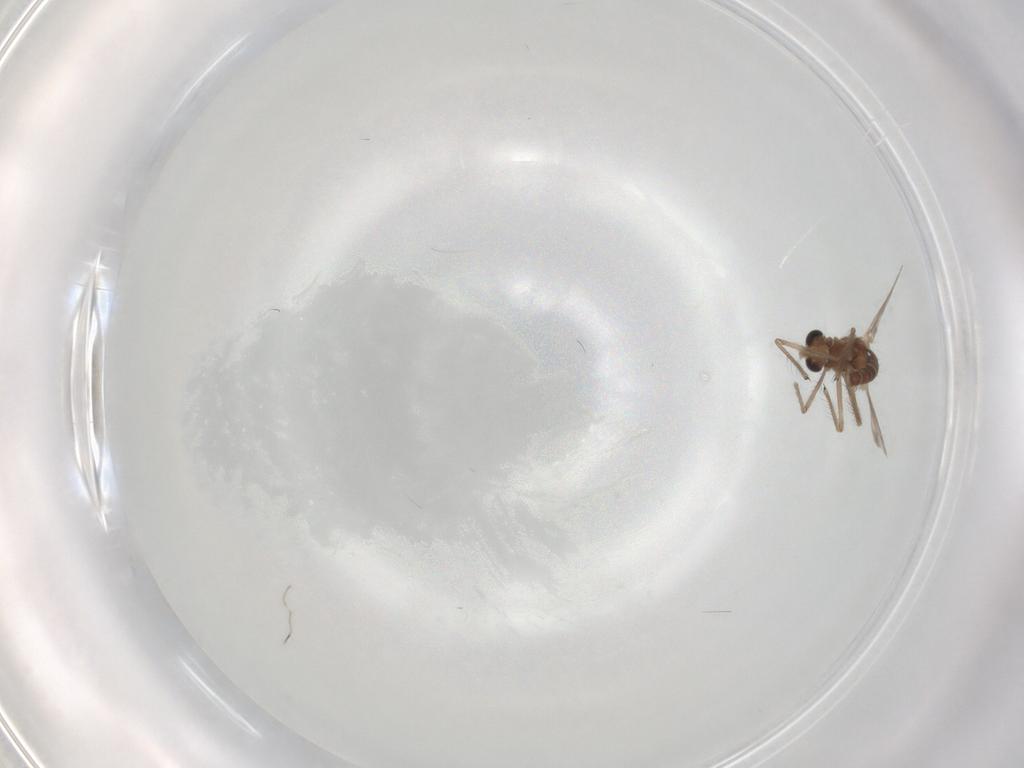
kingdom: Animalia
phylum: Arthropoda
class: Insecta
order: Diptera
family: Chironomidae
